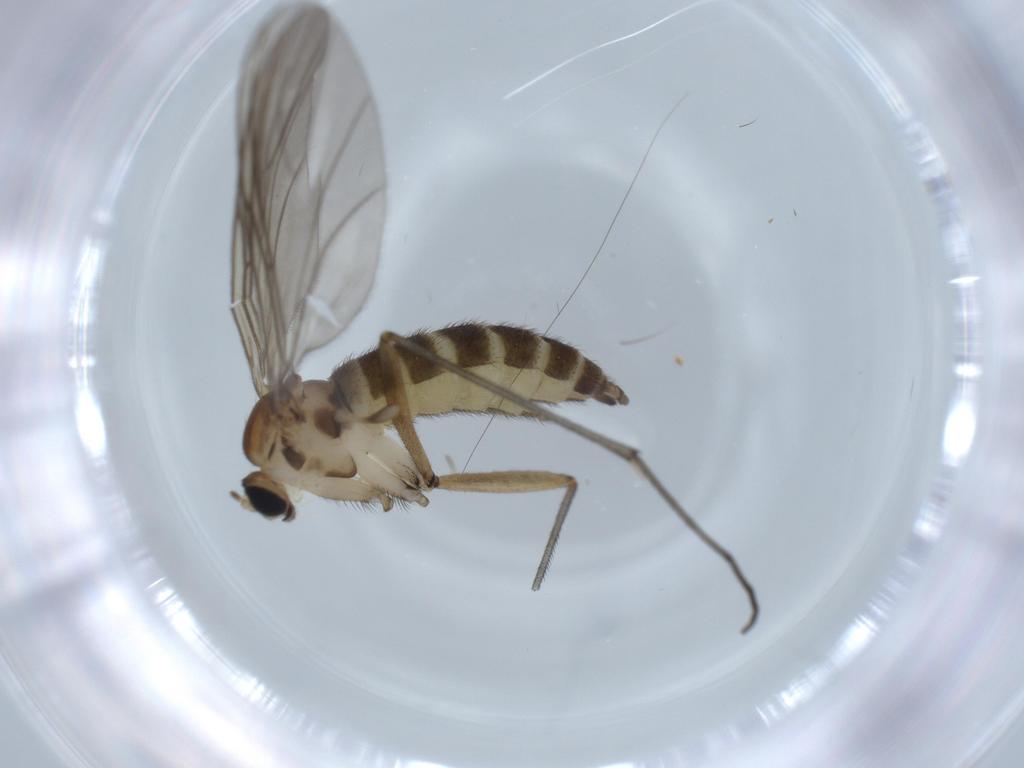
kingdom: Animalia
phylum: Arthropoda
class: Insecta
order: Diptera
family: Sciaridae
